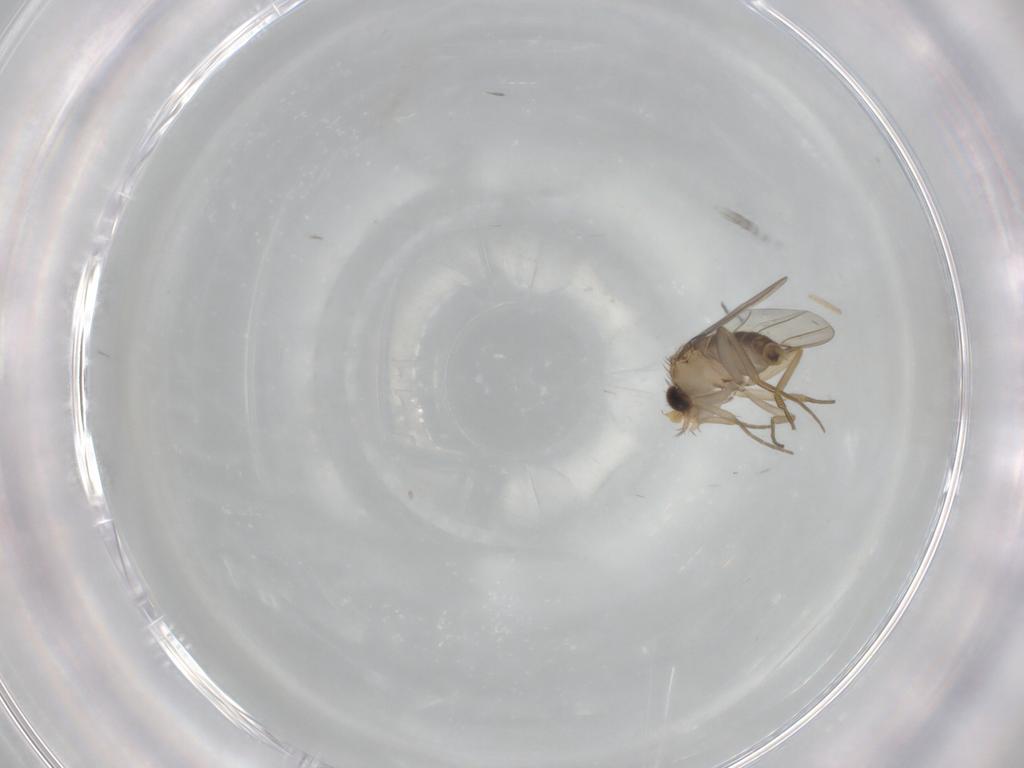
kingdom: Animalia
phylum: Arthropoda
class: Insecta
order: Diptera
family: Phoridae
